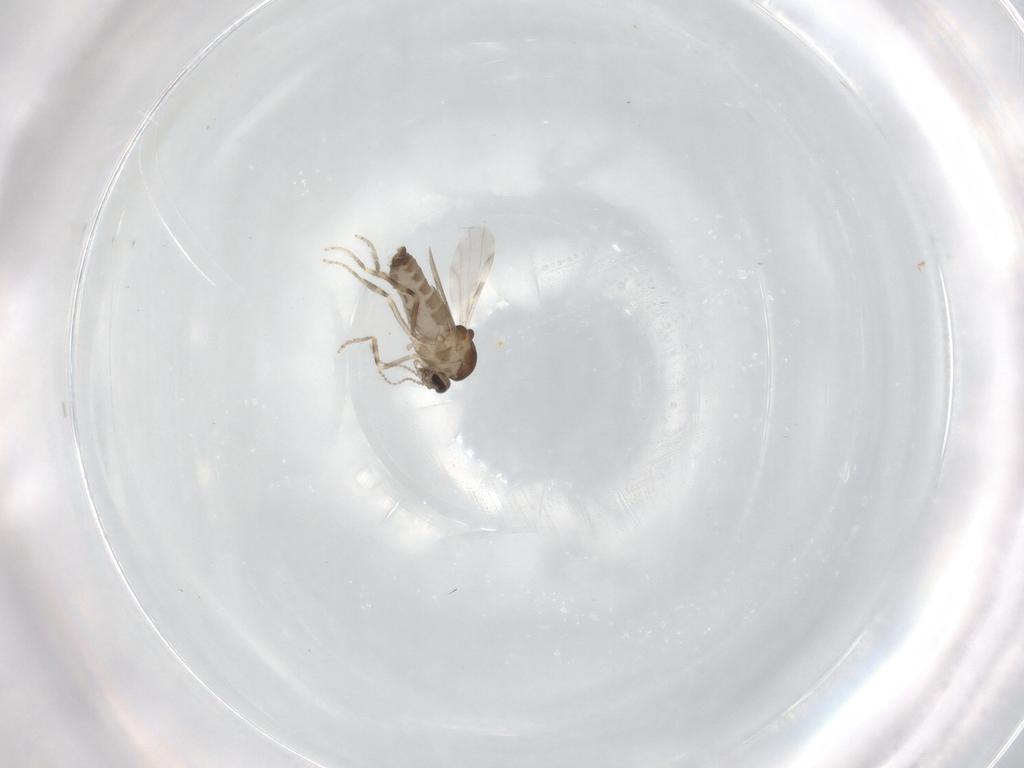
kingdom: Animalia
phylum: Arthropoda
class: Insecta
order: Diptera
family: Ceratopogonidae
